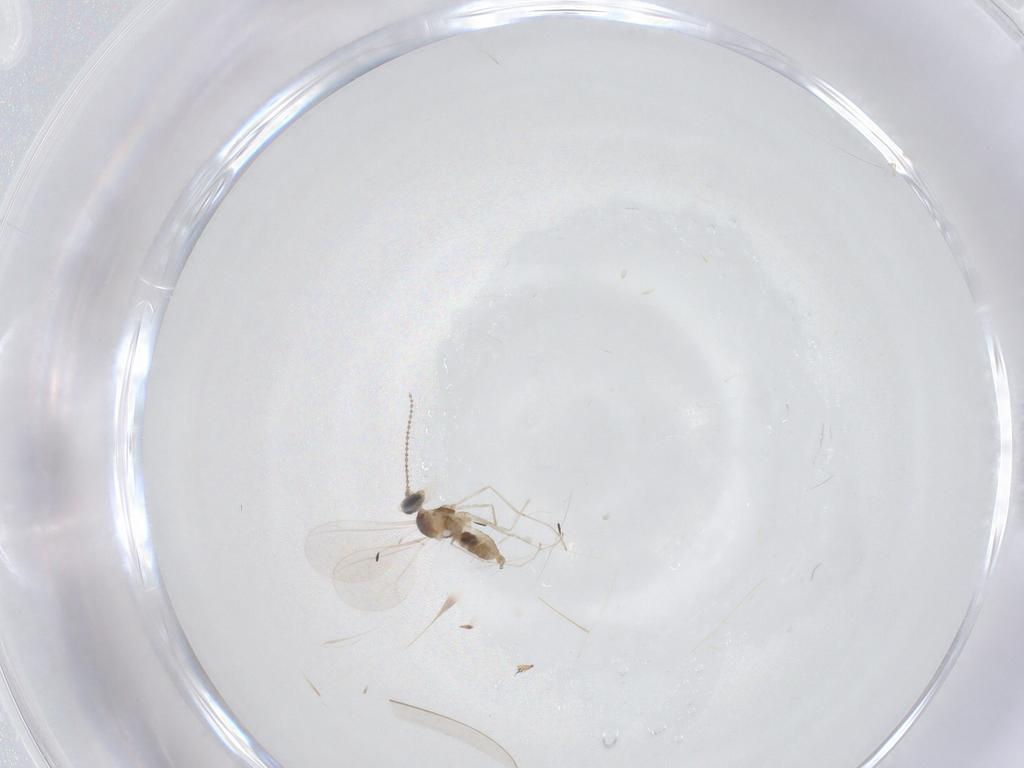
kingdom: Animalia
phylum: Arthropoda
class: Insecta
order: Diptera
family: Cecidomyiidae
